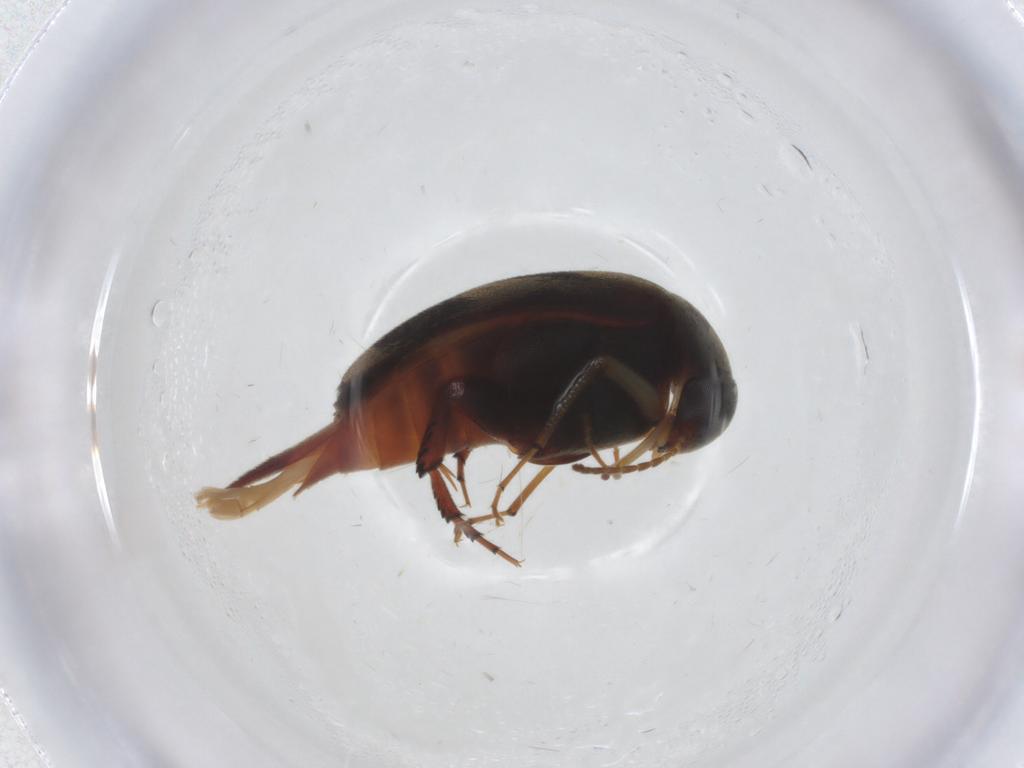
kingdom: Animalia
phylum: Arthropoda
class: Insecta
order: Coleoptera
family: Mordellidae
